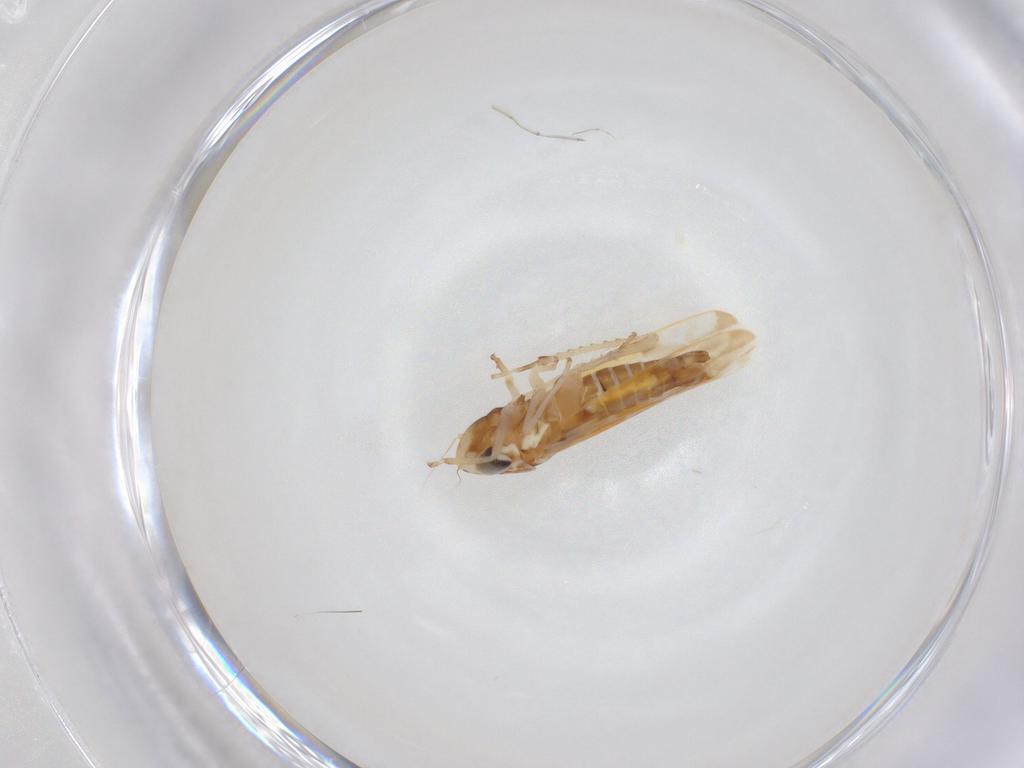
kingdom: Animalia
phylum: Arthropoda
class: Insecta
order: Hemiptera
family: Cicadellidae
